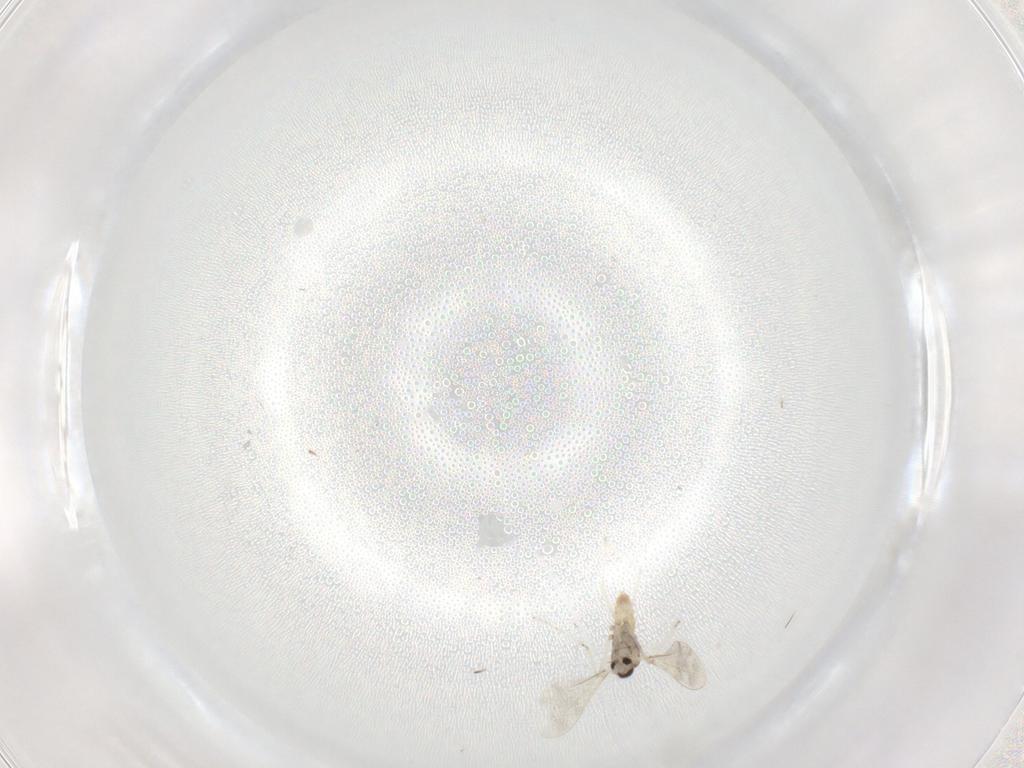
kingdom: Animalia
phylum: Arthropoda
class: Insecta
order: Diptera
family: Cecidomyiidae
